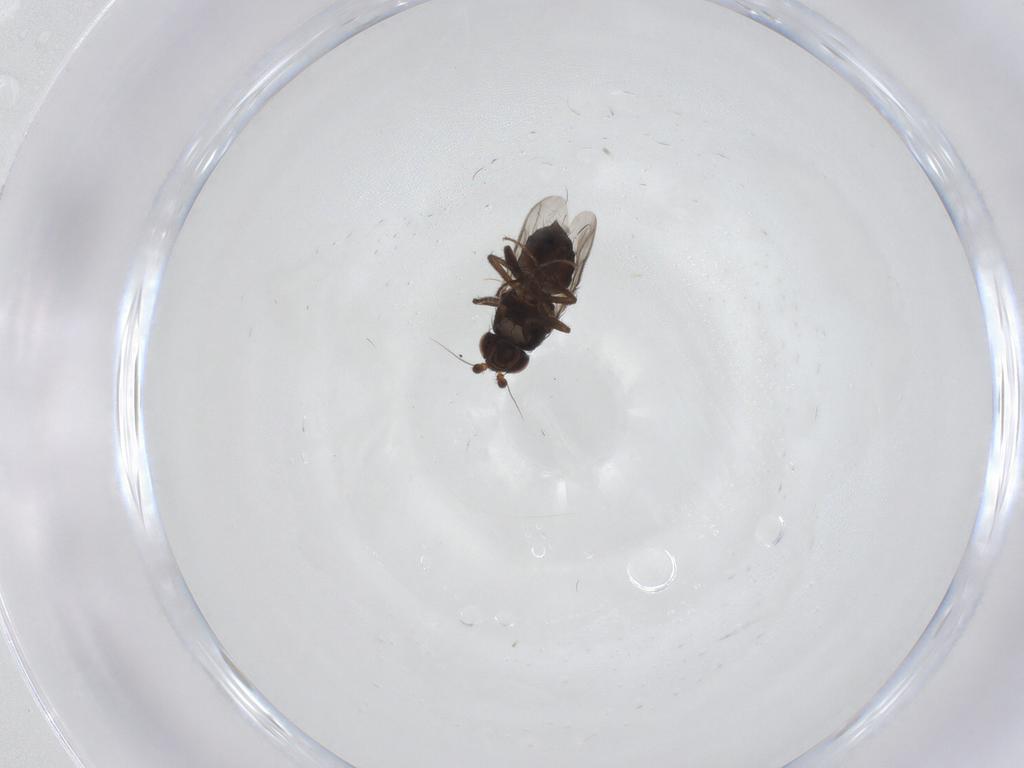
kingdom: Animalia
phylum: Arthropoda
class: Insecta
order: Diptera
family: Sphaeroceridae
